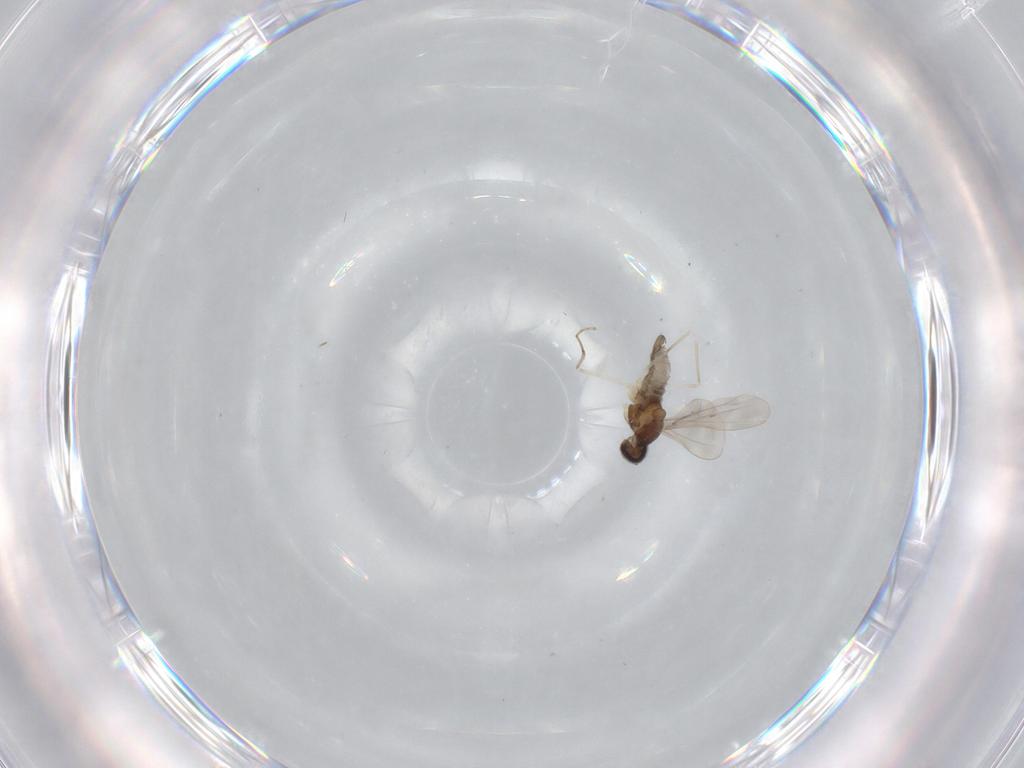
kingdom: Animalia
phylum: Arthropoda
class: Insecta
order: Diptera
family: Cecidomyiidae
